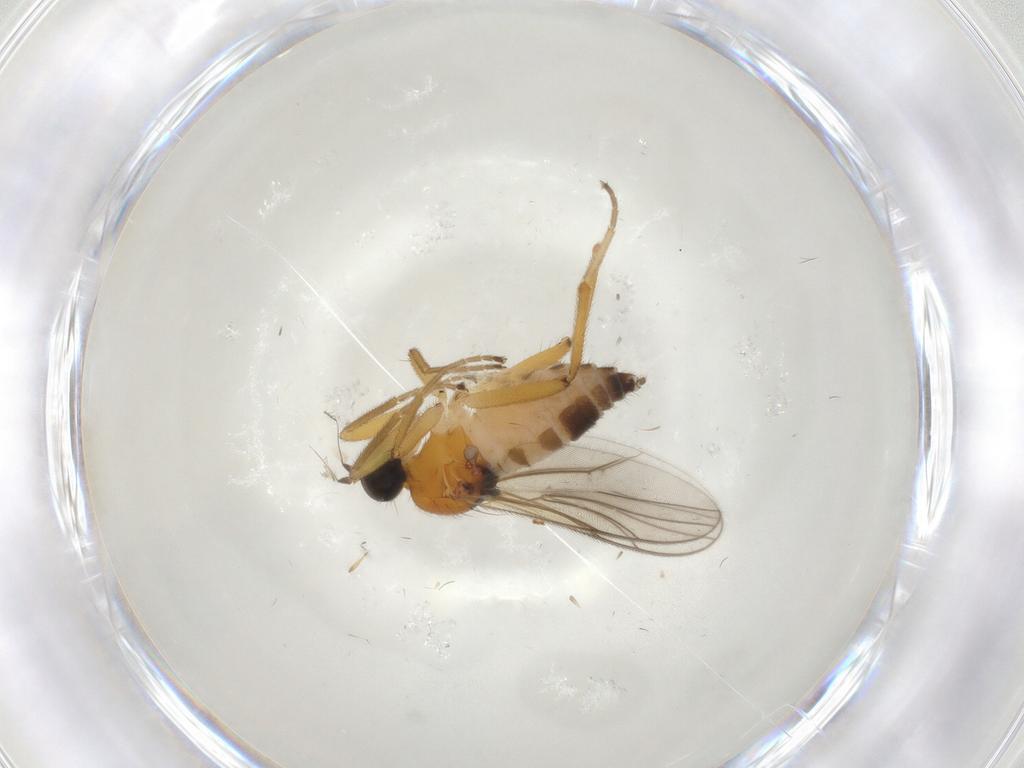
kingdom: Animalia
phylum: Arthropoda
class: Insecta
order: Diptera
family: Hybotidae
